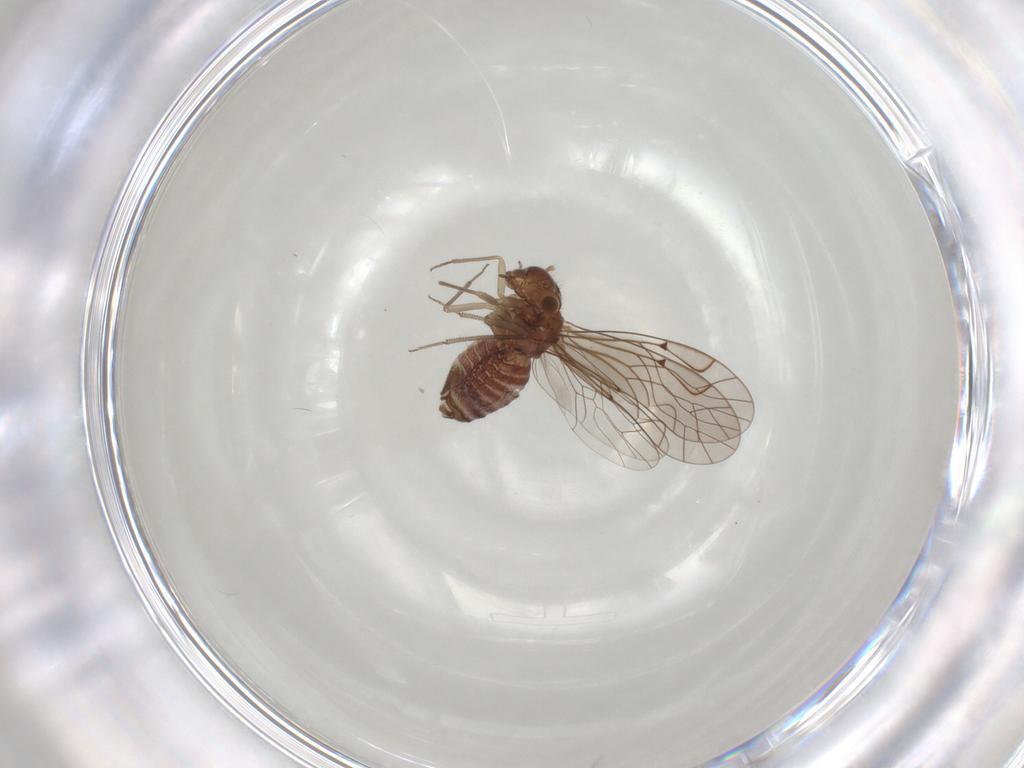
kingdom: Animalia
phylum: Arthropoda
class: Insecta
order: Psocodea
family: Lachesillidae
